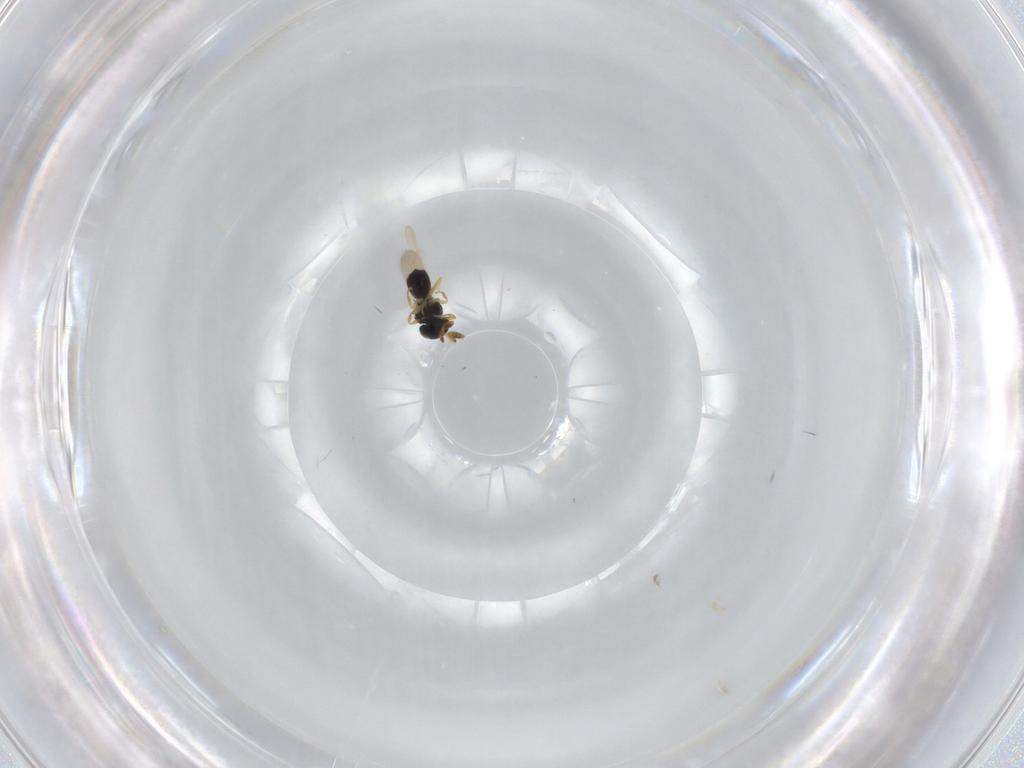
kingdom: Animalia
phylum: Arthropoda
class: Insecta
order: Hymenoptera
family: Scelionidae
